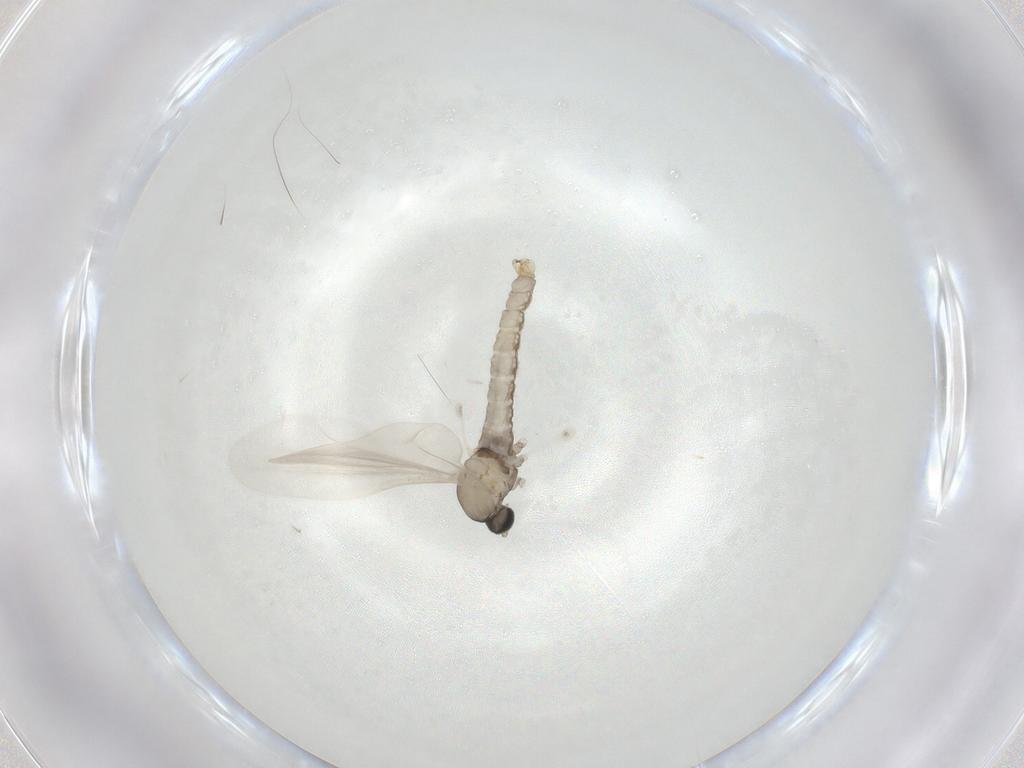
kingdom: Animalia
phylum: Arthropoda
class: Insecta
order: Diptera
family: Cecidomyiidae
